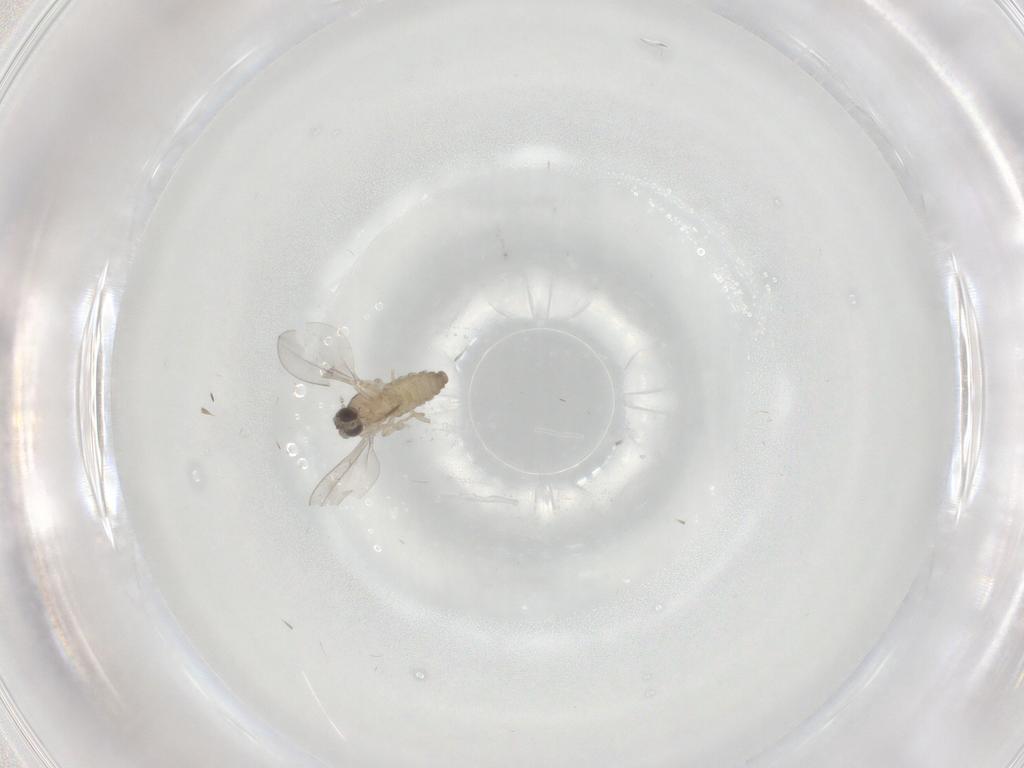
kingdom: Animalia
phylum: Arthropoda
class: Insecta
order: Diptera
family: Cecidomyiidae
